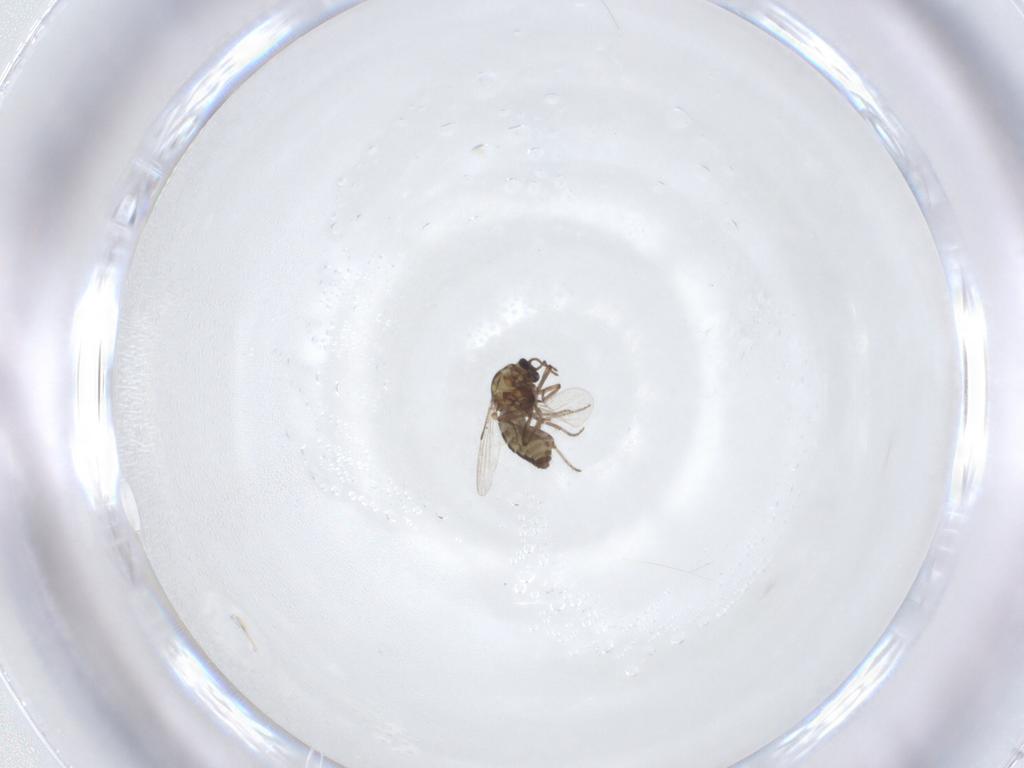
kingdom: Animalia
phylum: Arthropoda
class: Insecta
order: Diptera
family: Ceratopogonidae
